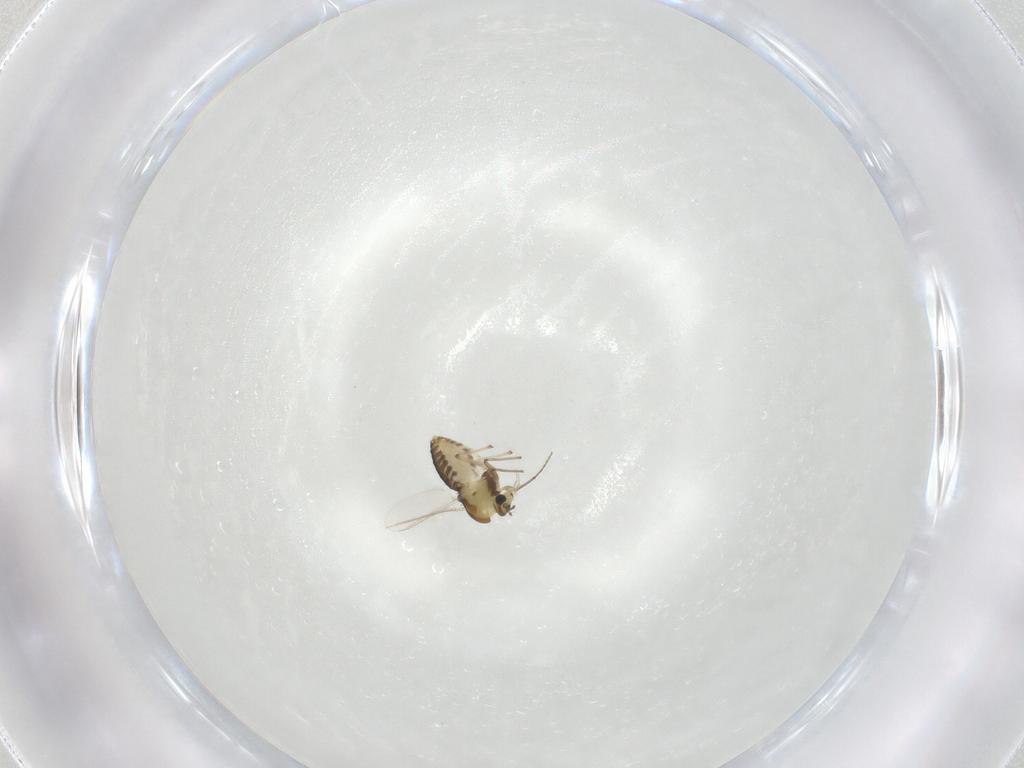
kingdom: Animalia
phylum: Arthropoda
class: Insecta
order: Diptera
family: Chironomidae
